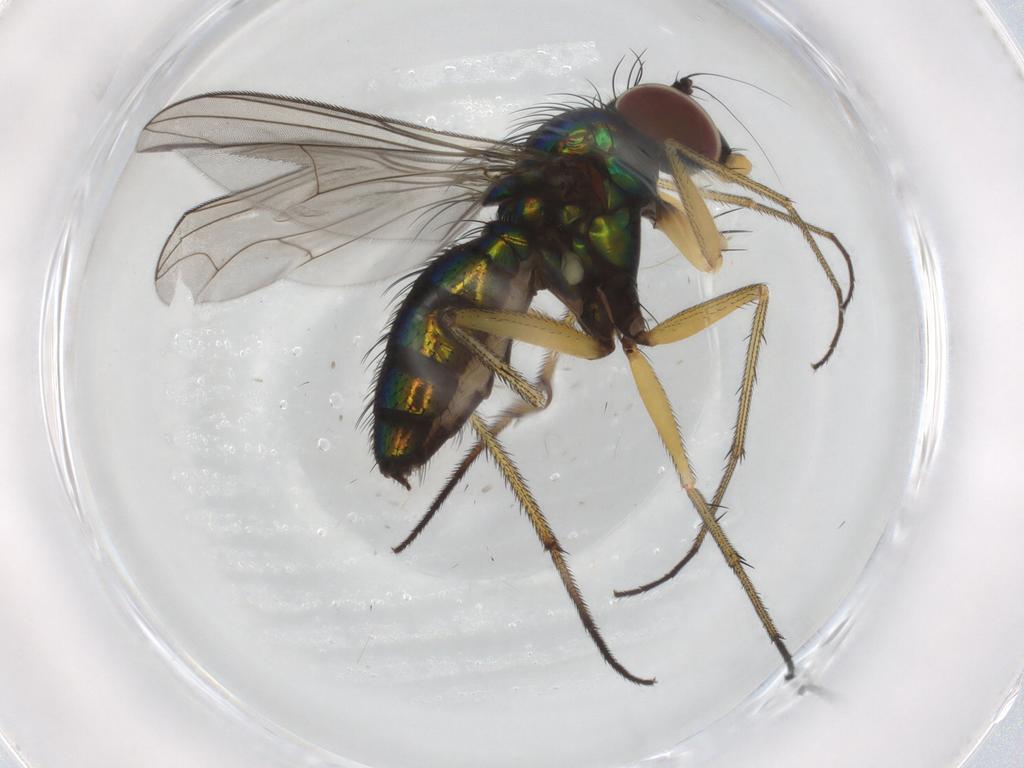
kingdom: Animalia
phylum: Arthropoda
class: Insecta
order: Diptera
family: Dolichopodidae
